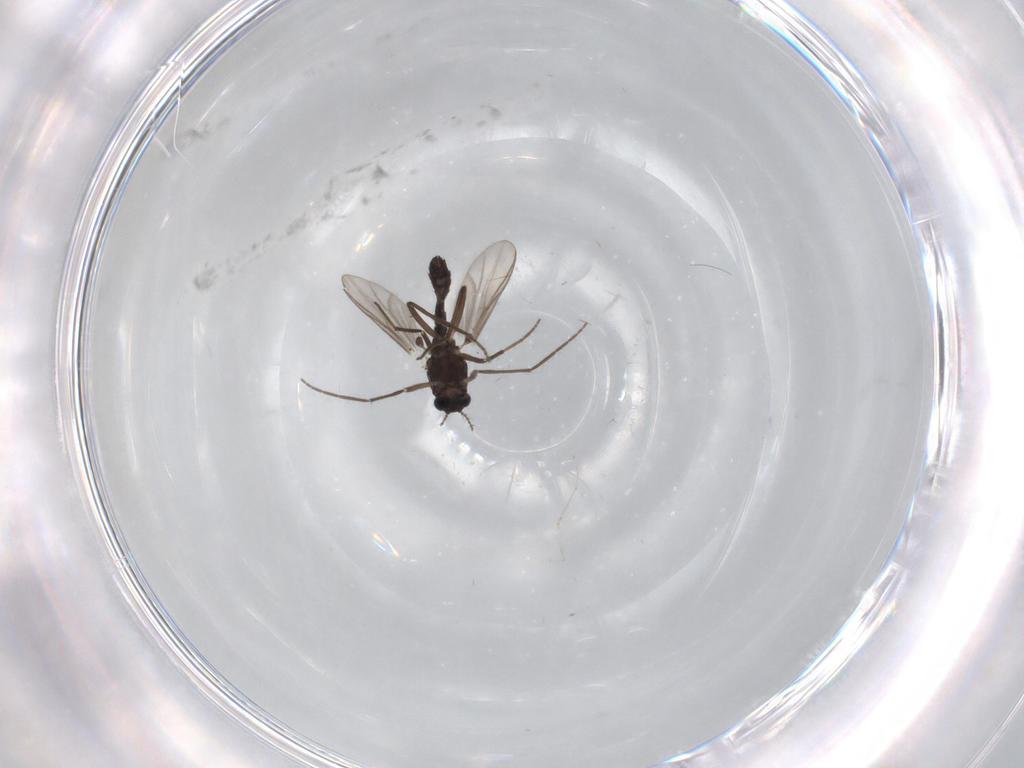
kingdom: Animalia
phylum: Arthropoda
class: Insecta
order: Diptera
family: Chironomidae
